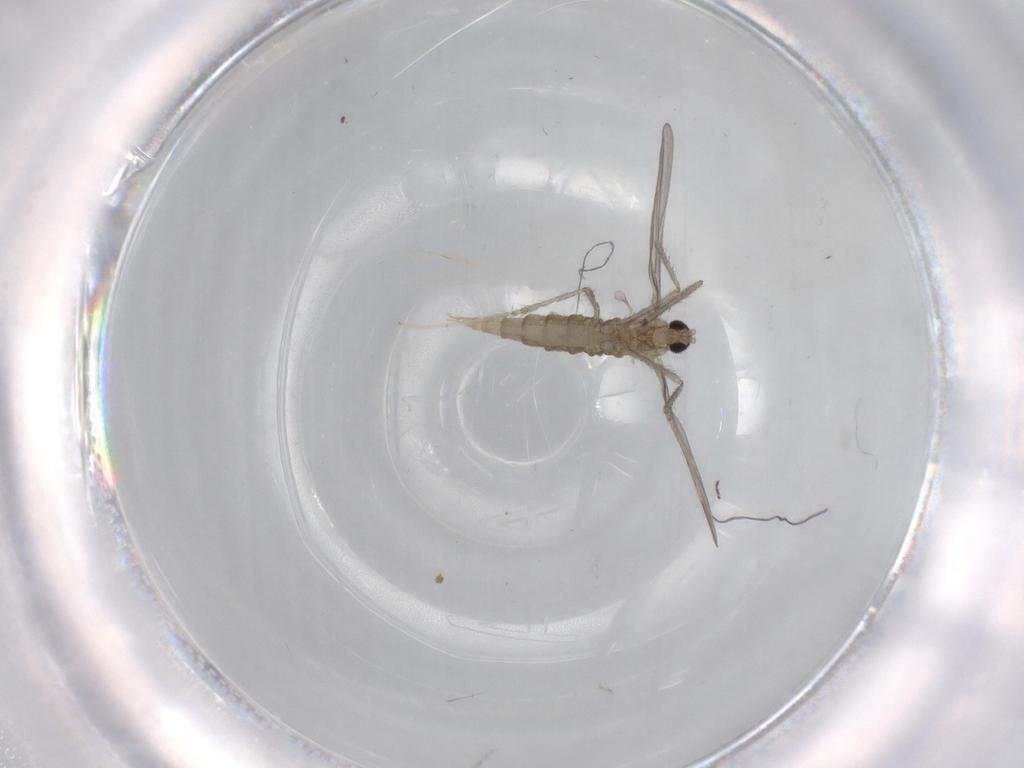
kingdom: Animalia
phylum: Arthropoda
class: Insecta
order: Diptera
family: Cecidomyiidae
